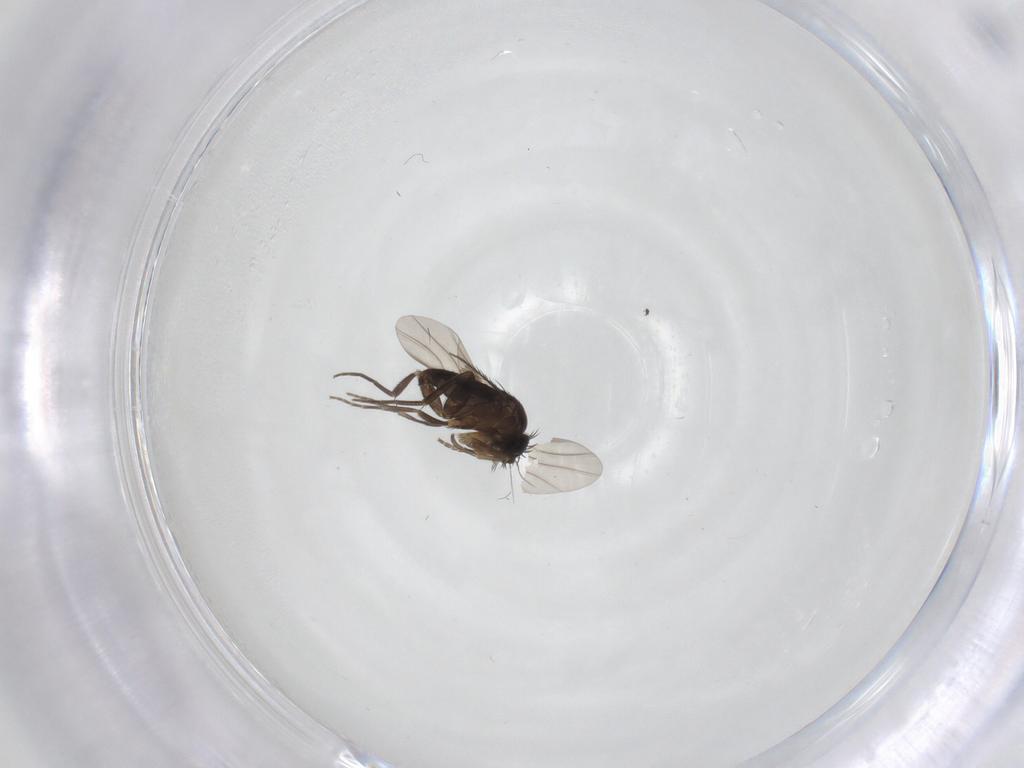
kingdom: Animalia
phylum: Arthropoda
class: Insecta
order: Diptera
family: Phoridae
